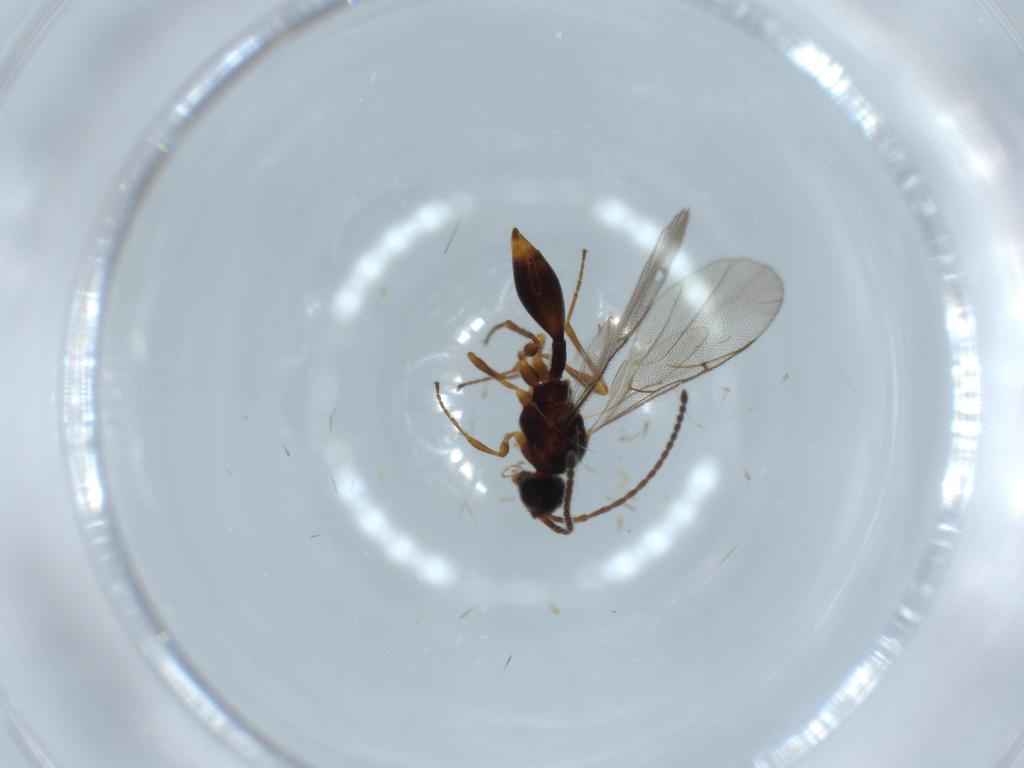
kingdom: Animalia
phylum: Arthropoda
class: Insecta
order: Hymenoptera
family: Diapriidae
